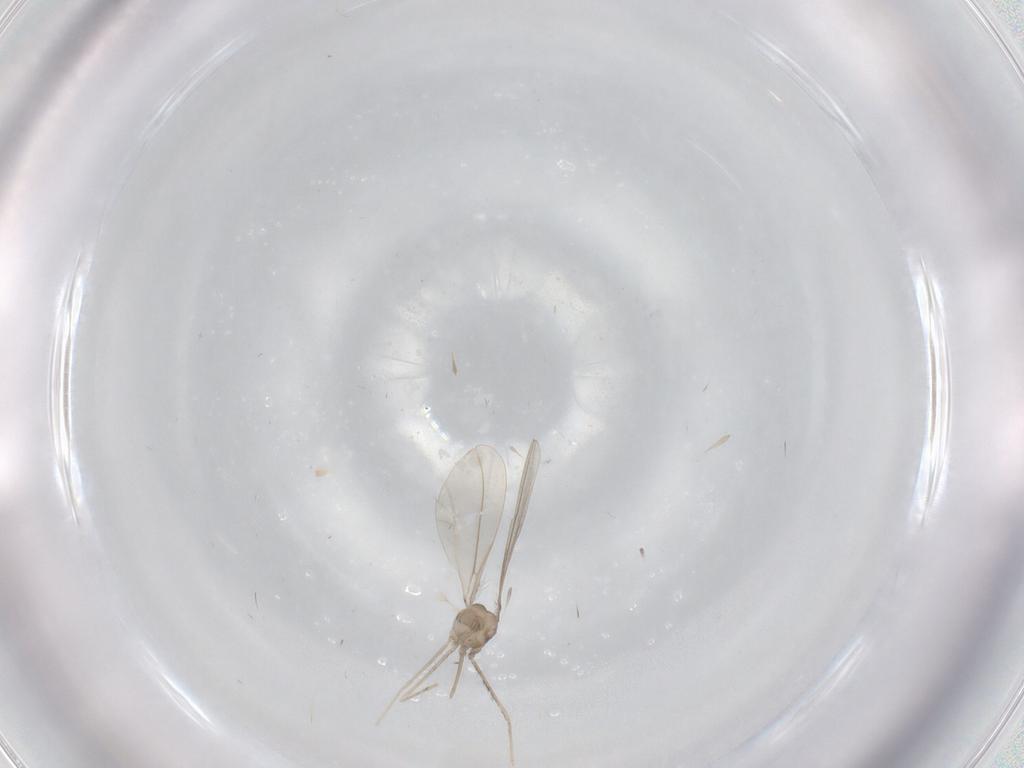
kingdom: Animalia
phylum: Arthropoda
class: Insecta
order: Diptera
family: Cecidomyiidae
